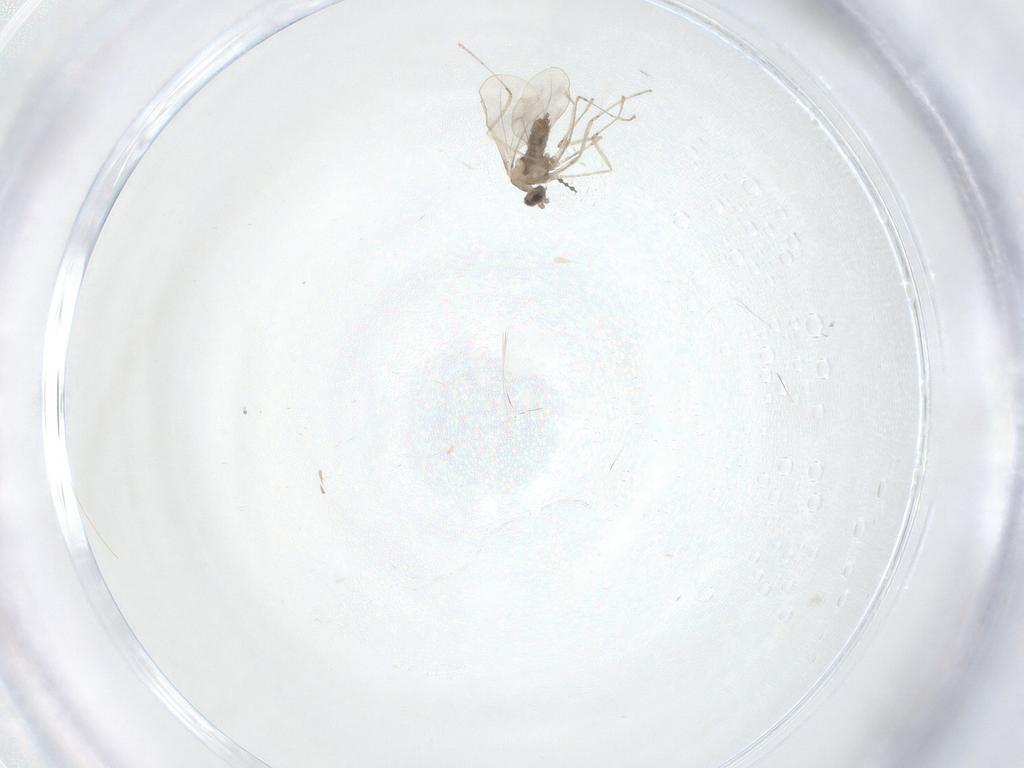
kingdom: Animalia
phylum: Arthropoda
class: Insecta
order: Diptera
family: Cecidomyiidae
